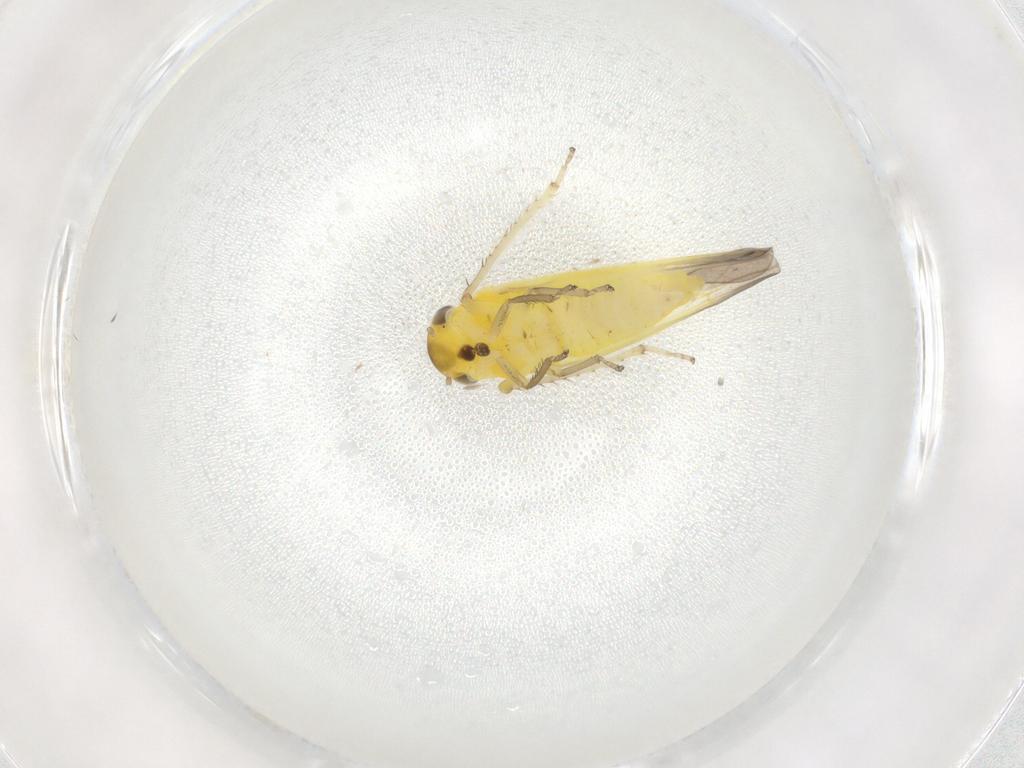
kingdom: Animalia
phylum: Arthropoda
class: Insecta
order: Hemiptera
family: Cicadellidae
